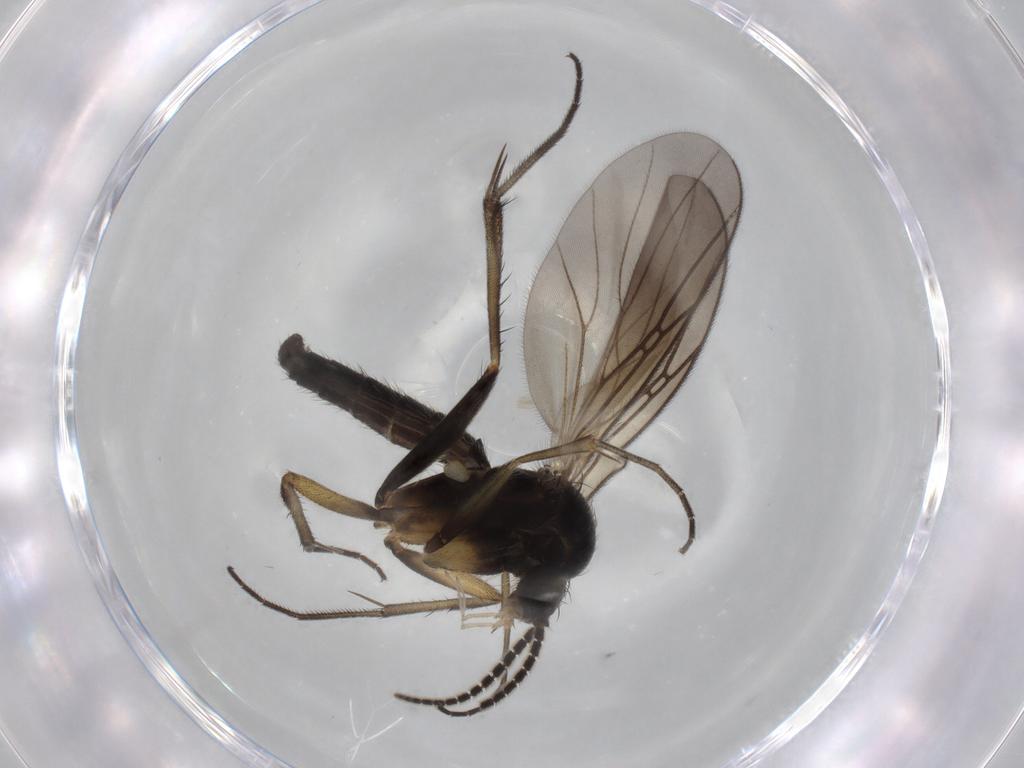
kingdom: Animalia
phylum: Arthropoda
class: Insecta
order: Diptera
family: Mycetophilidae
